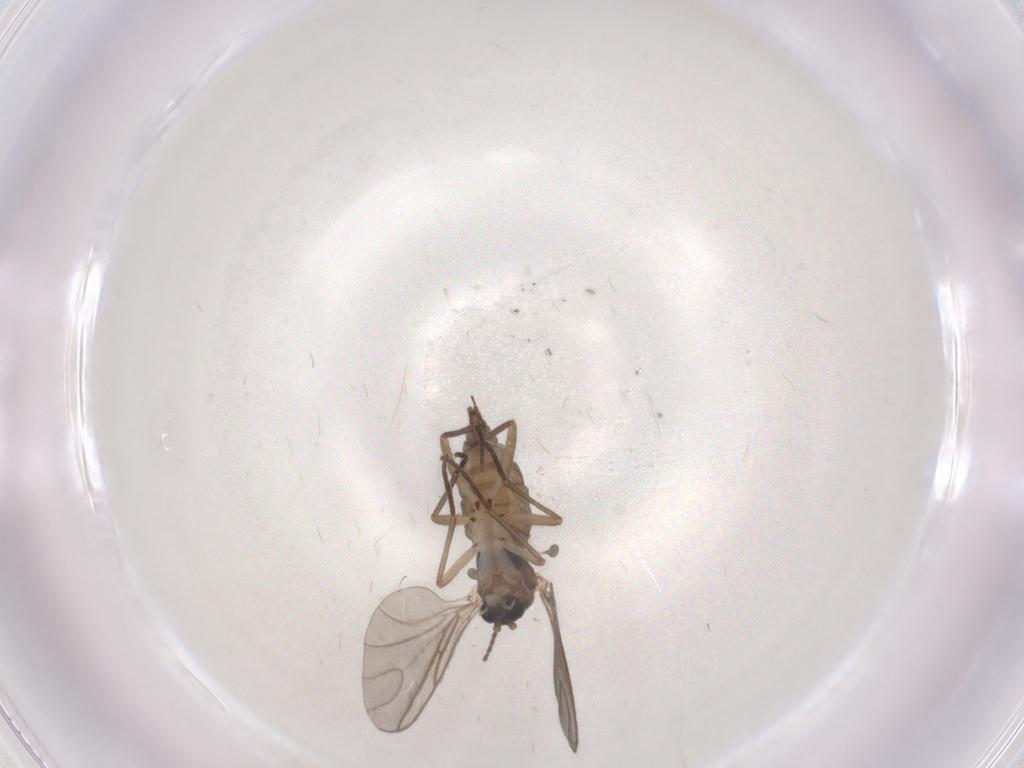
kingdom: Animalia
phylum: Arthropoda
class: Insecta
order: Diptera
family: Sciaridae
